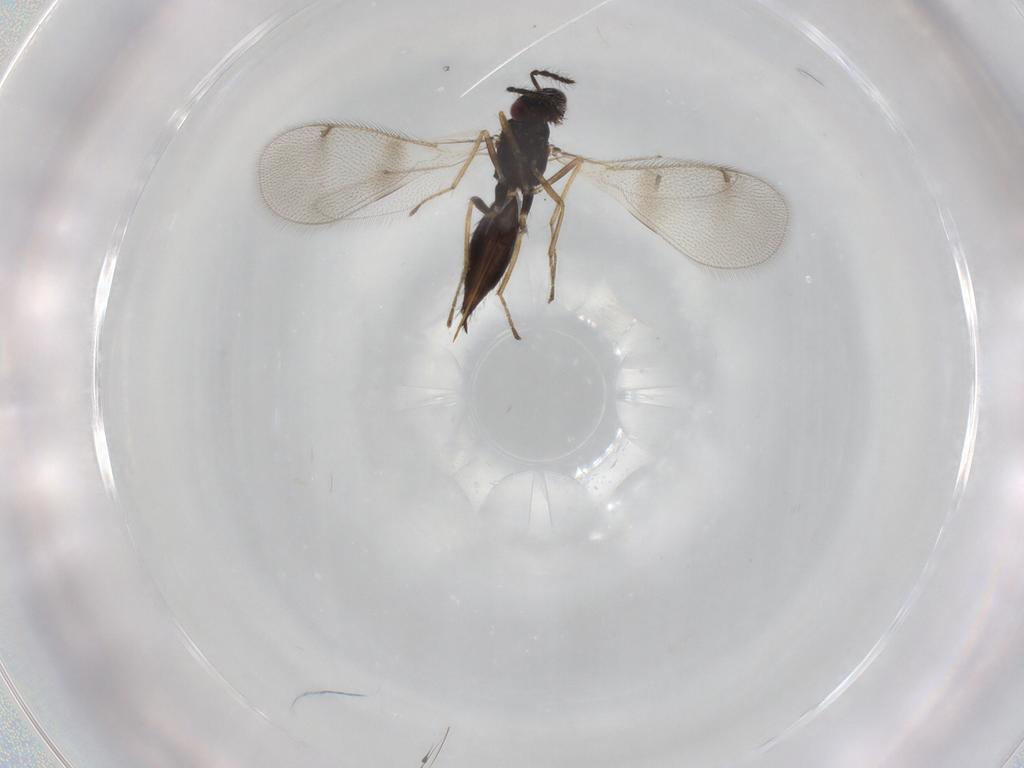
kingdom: Animalia
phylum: Arthropoda
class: Insecta
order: Hymenoptera
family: Eulophidae
